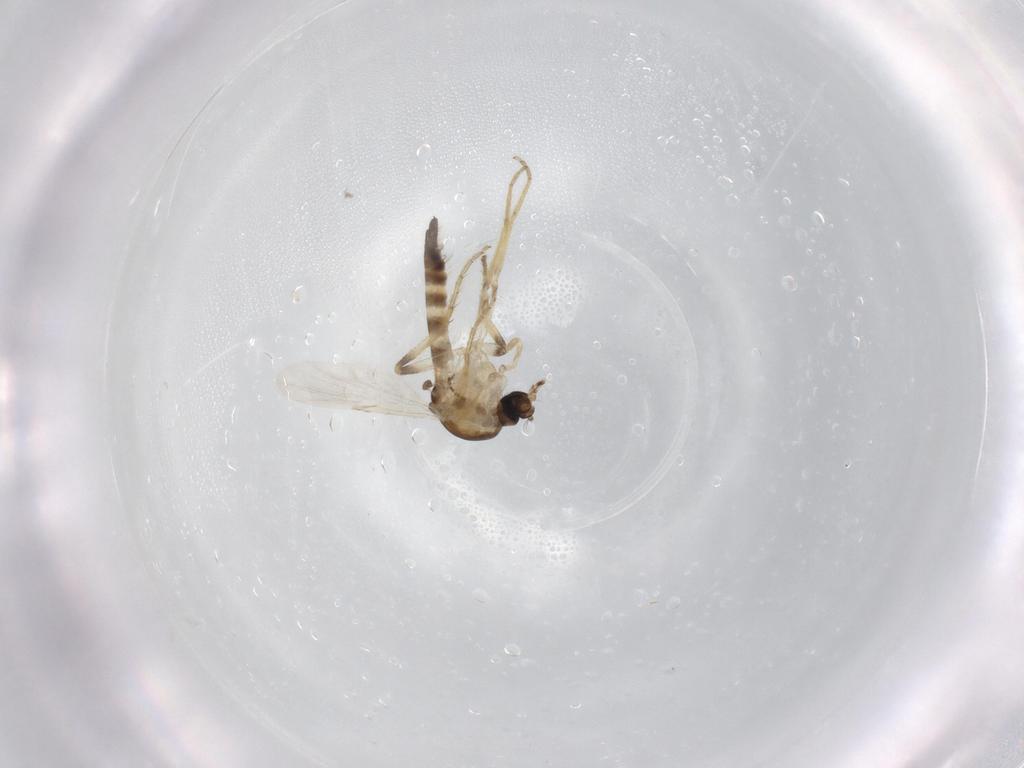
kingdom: Animalia
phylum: Arthropoda
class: Insecta
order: Diptera
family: Ceratopogonidae
